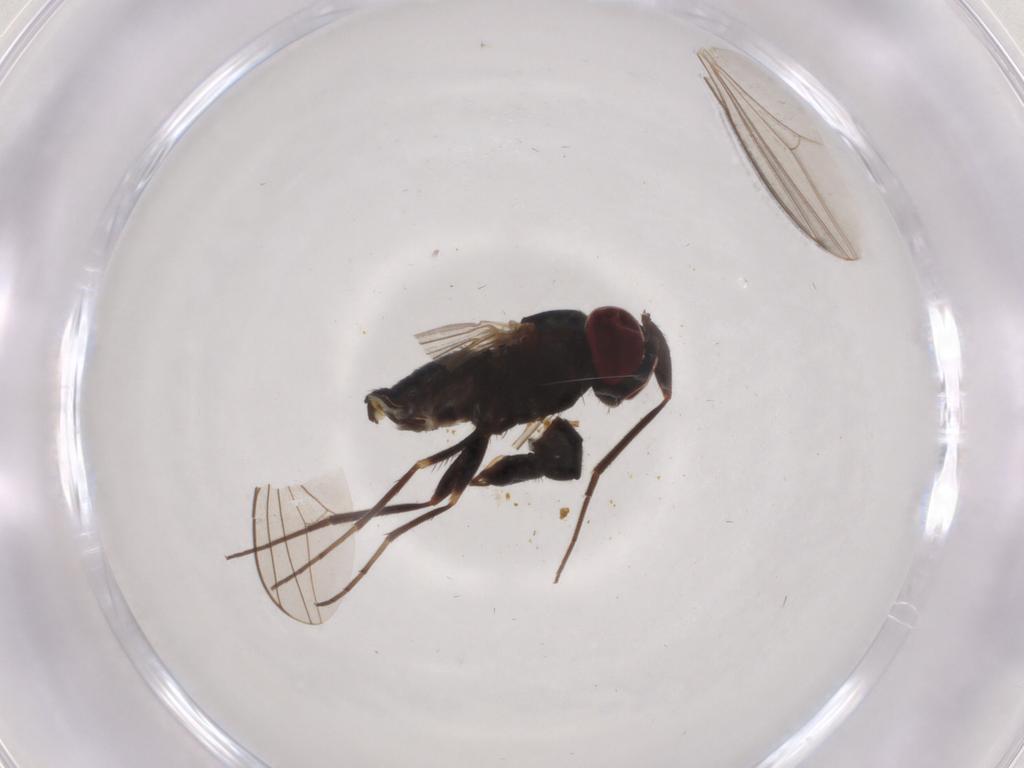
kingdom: Animalia
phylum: Arthropoda
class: Insecta
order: Diptera
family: Dolichopodidae
